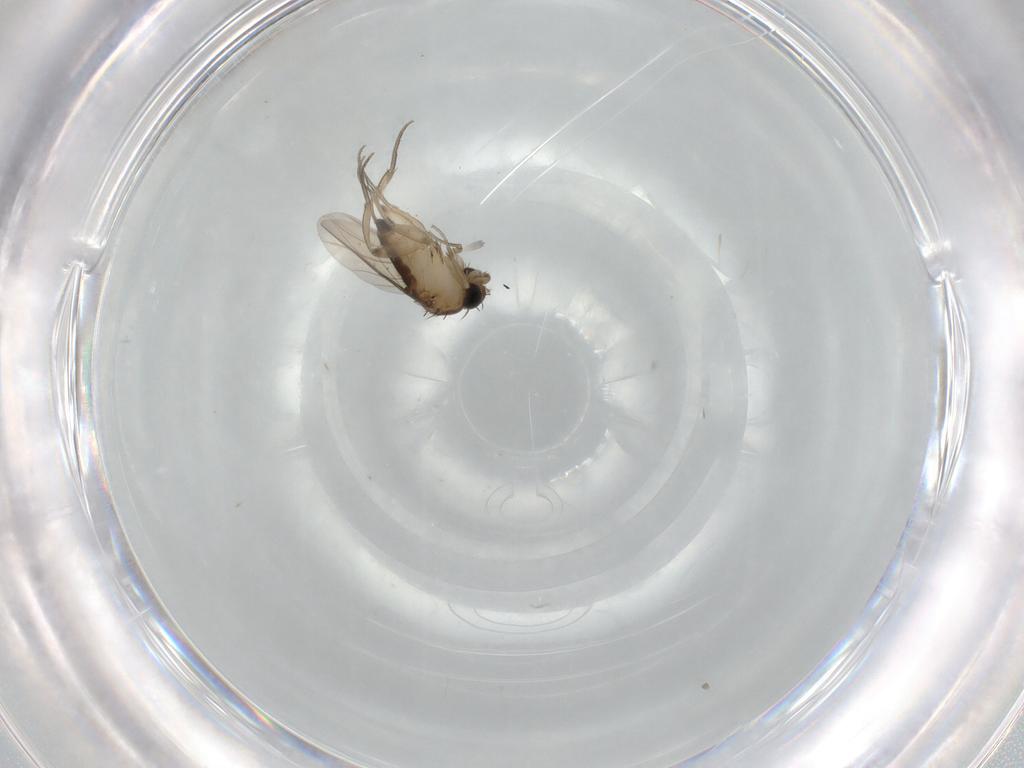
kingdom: Animalia
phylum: Arthropoda
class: Insecta
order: Diptera
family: Phoridae
